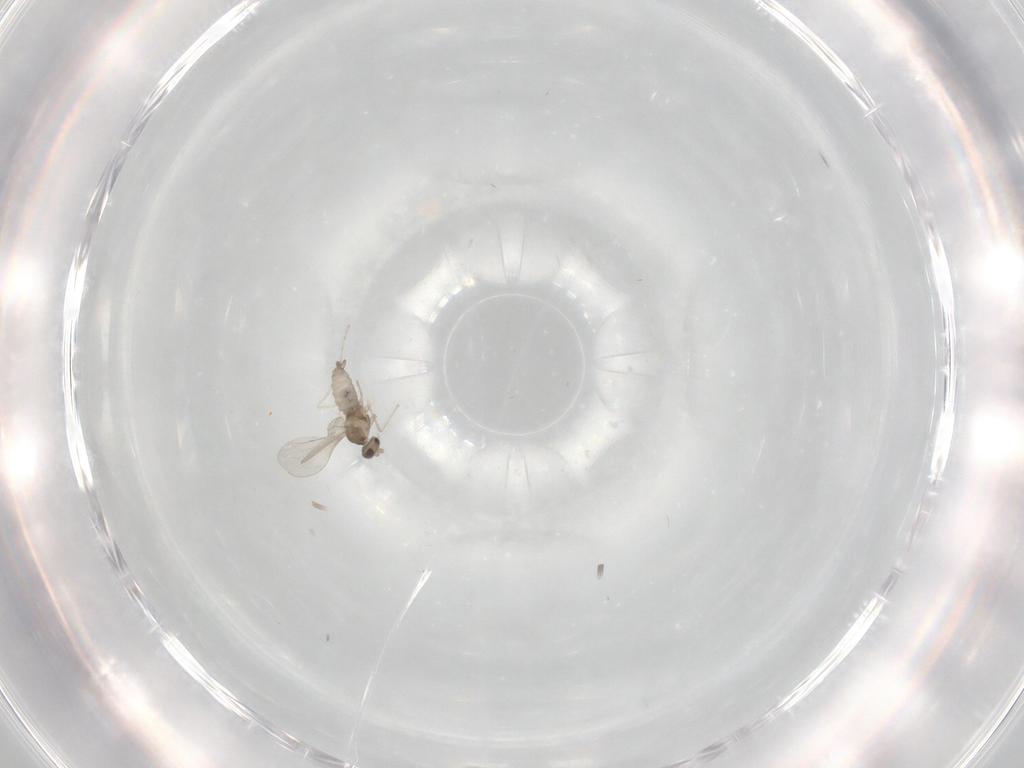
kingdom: Animalia
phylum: Arthropoda
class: Insecta
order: Diptera
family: Cecidomyiidae
